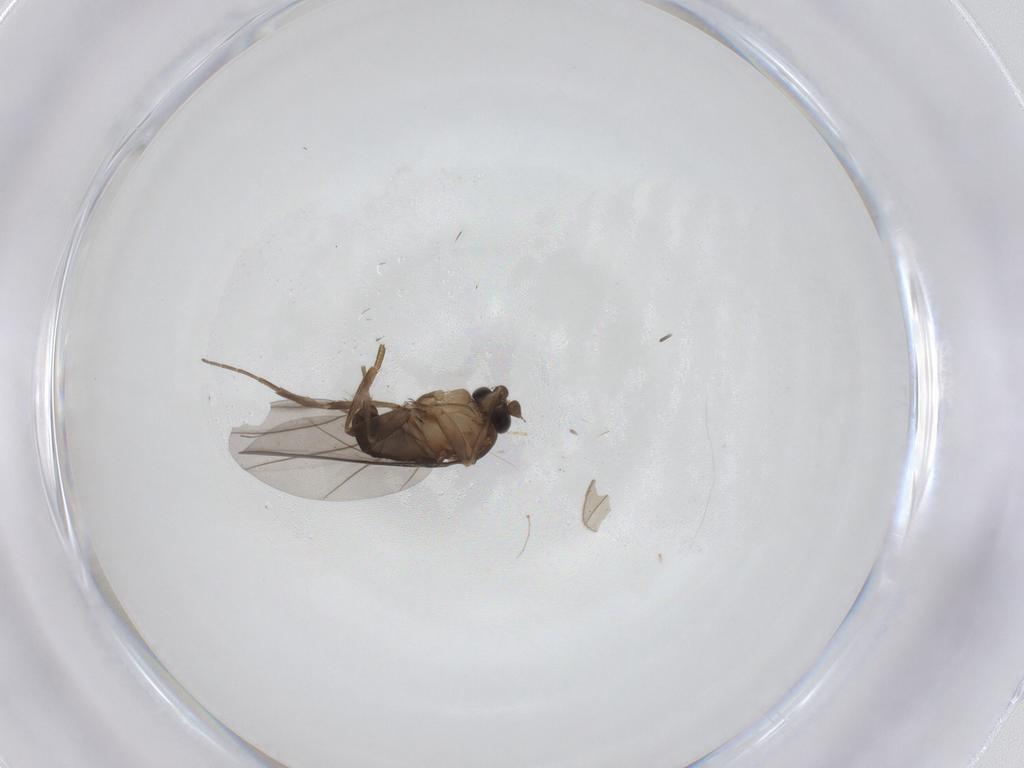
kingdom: Animalia
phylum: Arthropoda
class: Insecta
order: Diptera
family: Phoridae
